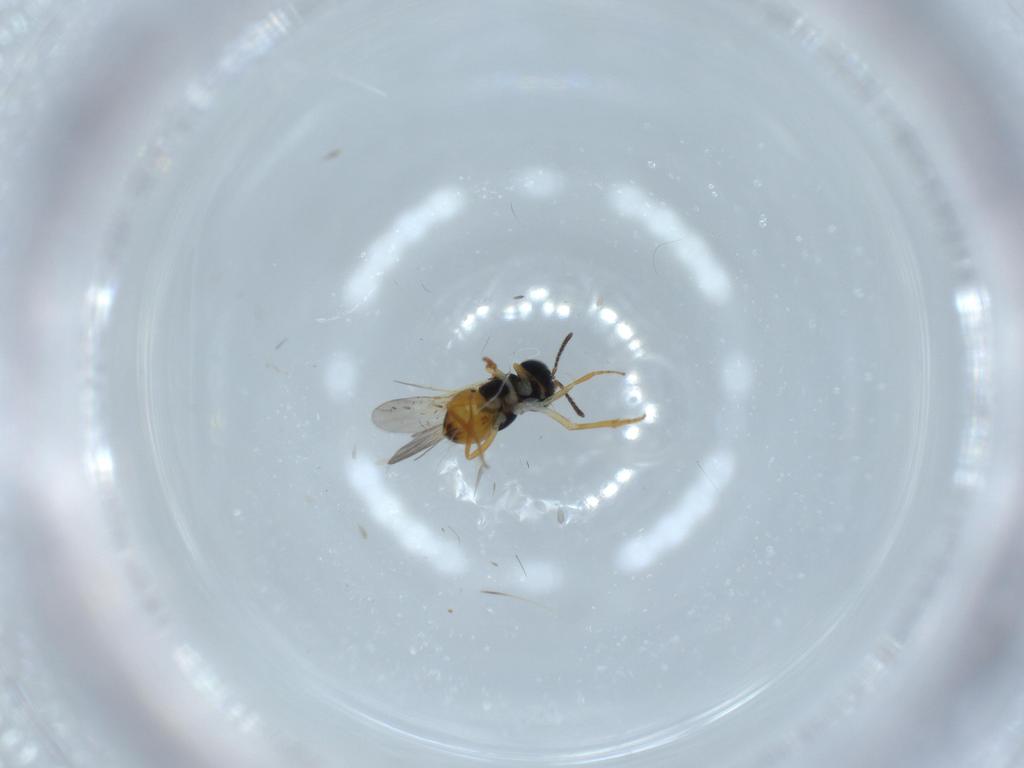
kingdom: Animalia
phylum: Arthropoda
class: Insecta
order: Hymenoptera
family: Encyrtidae
